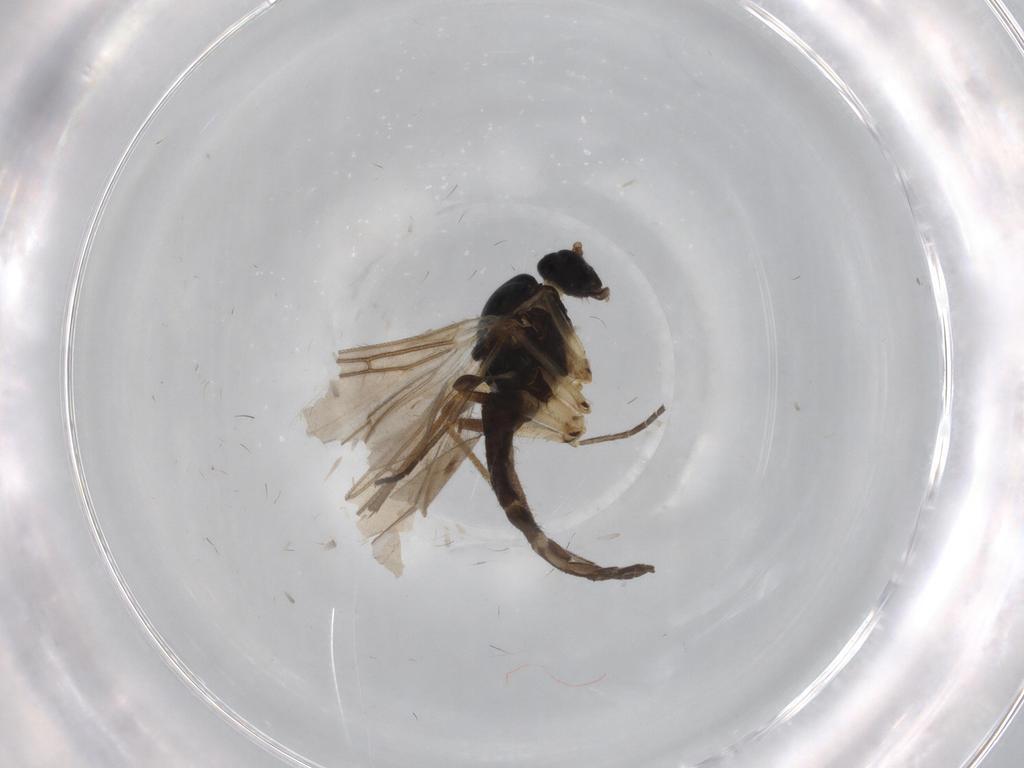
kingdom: Animalia
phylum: Arthropoda
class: Insecta
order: Diptera
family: Sciaridae
